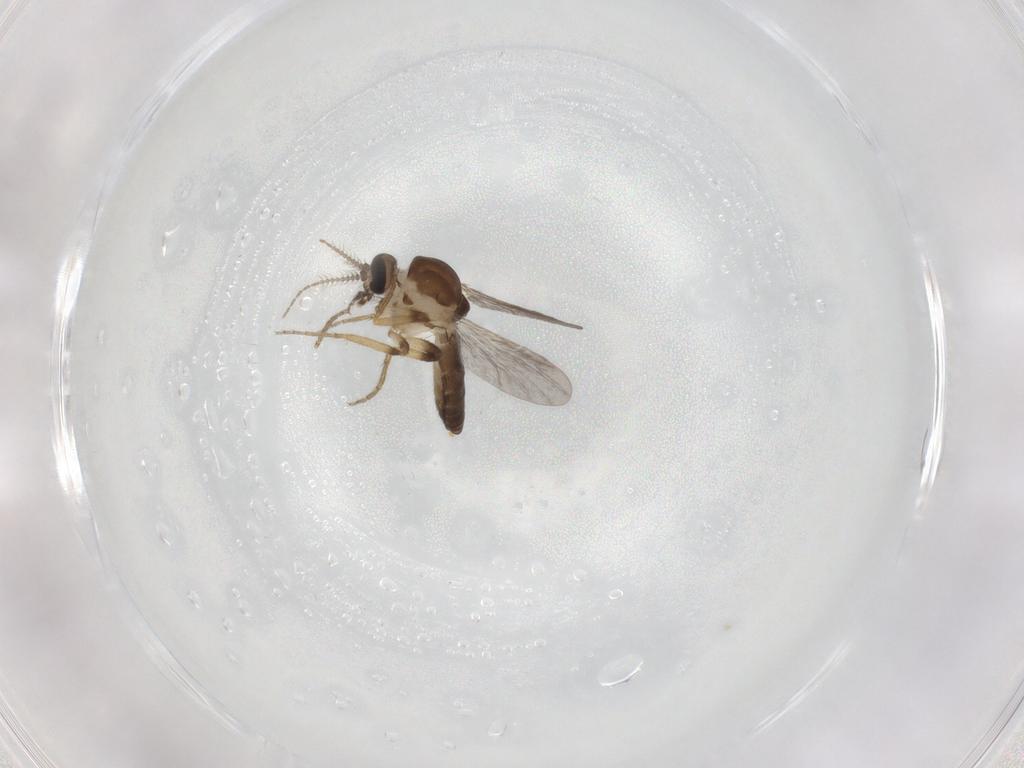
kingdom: Animalia
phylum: Arthropoda
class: Insecta
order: Diptera
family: Ceratopogonidae
